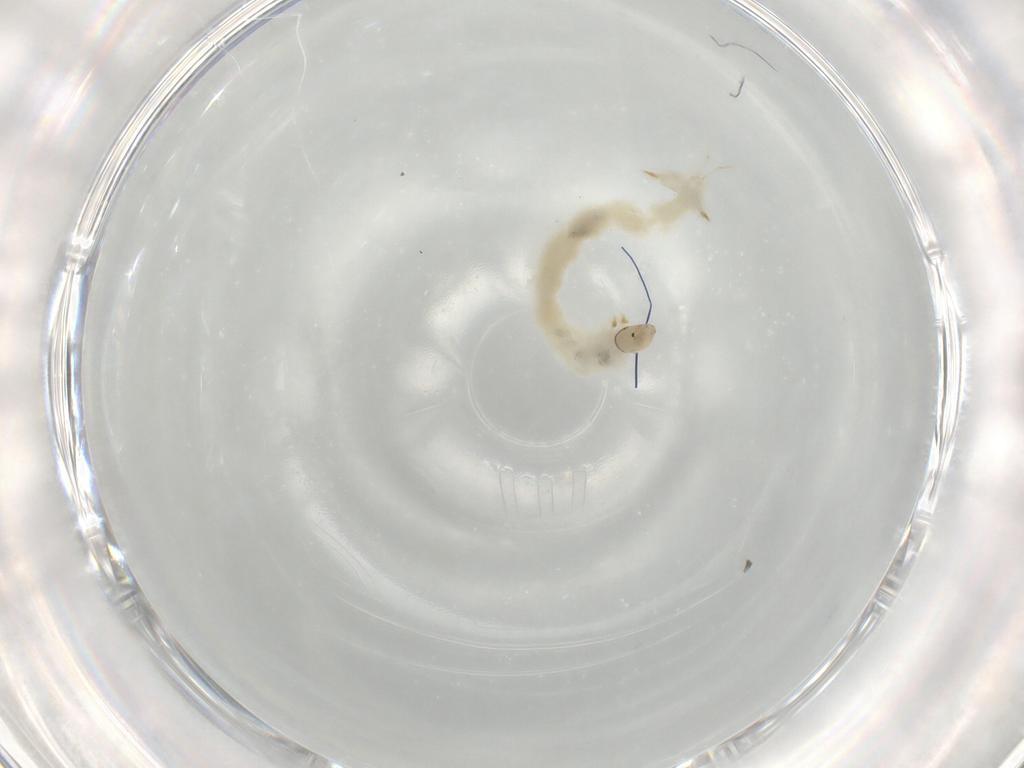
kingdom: Animalia
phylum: Arthropoda
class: Insecta
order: Diptera
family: Chironomidae
